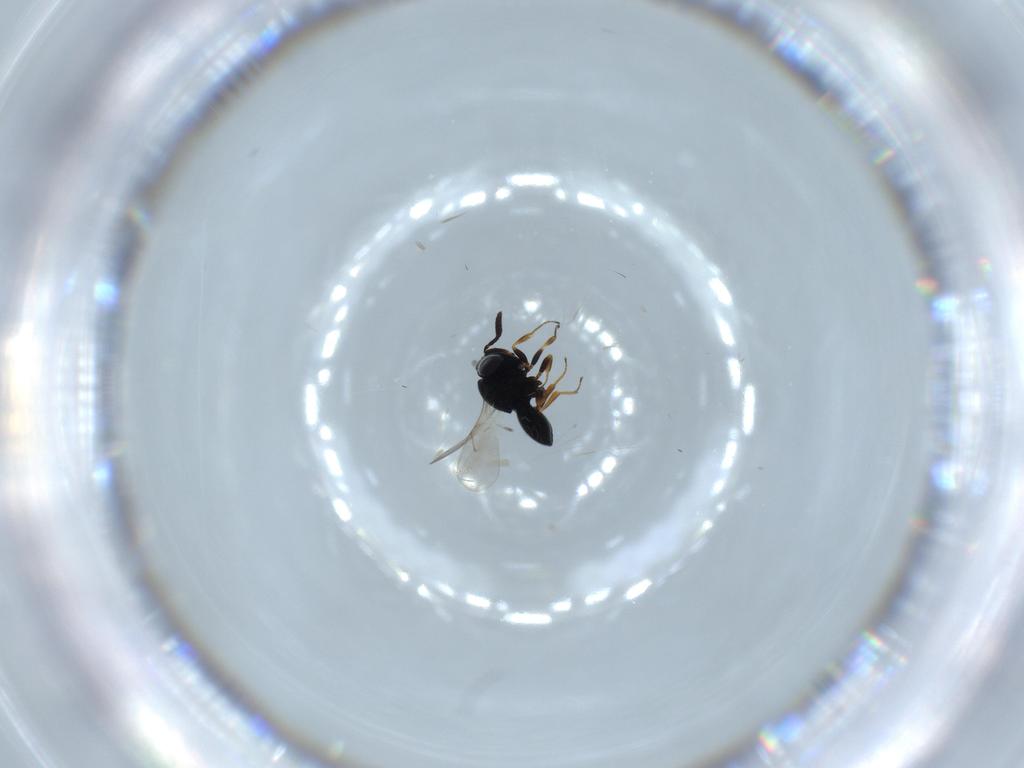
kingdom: Animalia
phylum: Arthropoda
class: Insecta
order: Hymenoptera
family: Scelionidae
